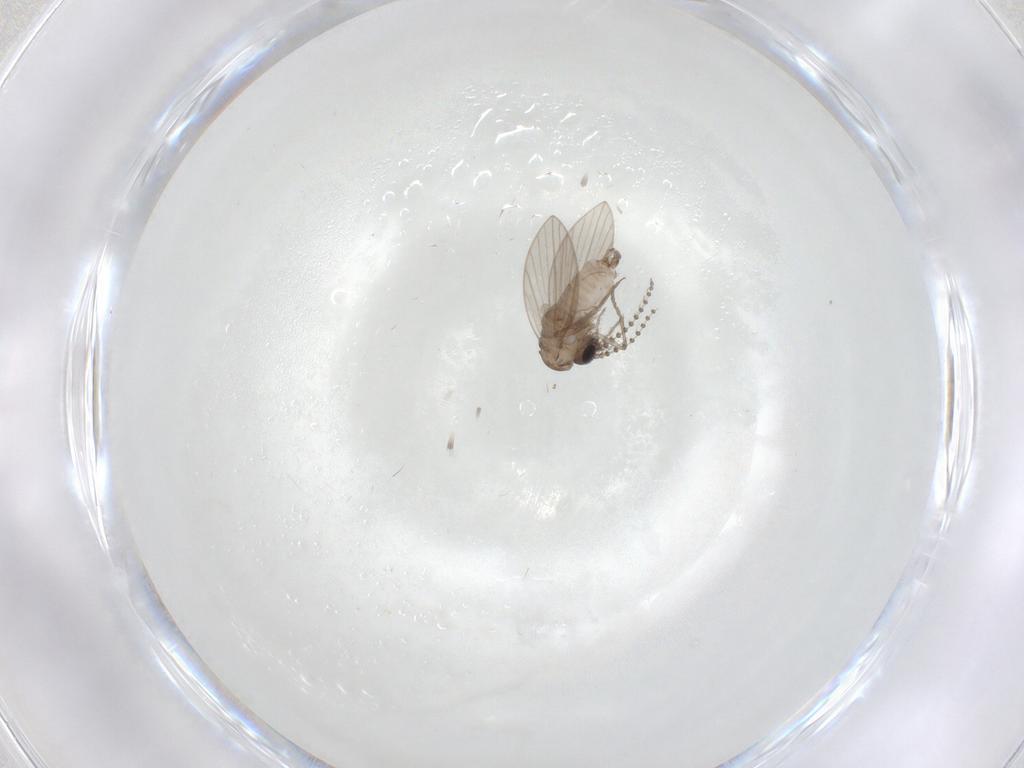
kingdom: Animalia
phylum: Arthropoda
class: Insecta
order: Diptera
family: Psychodidae
